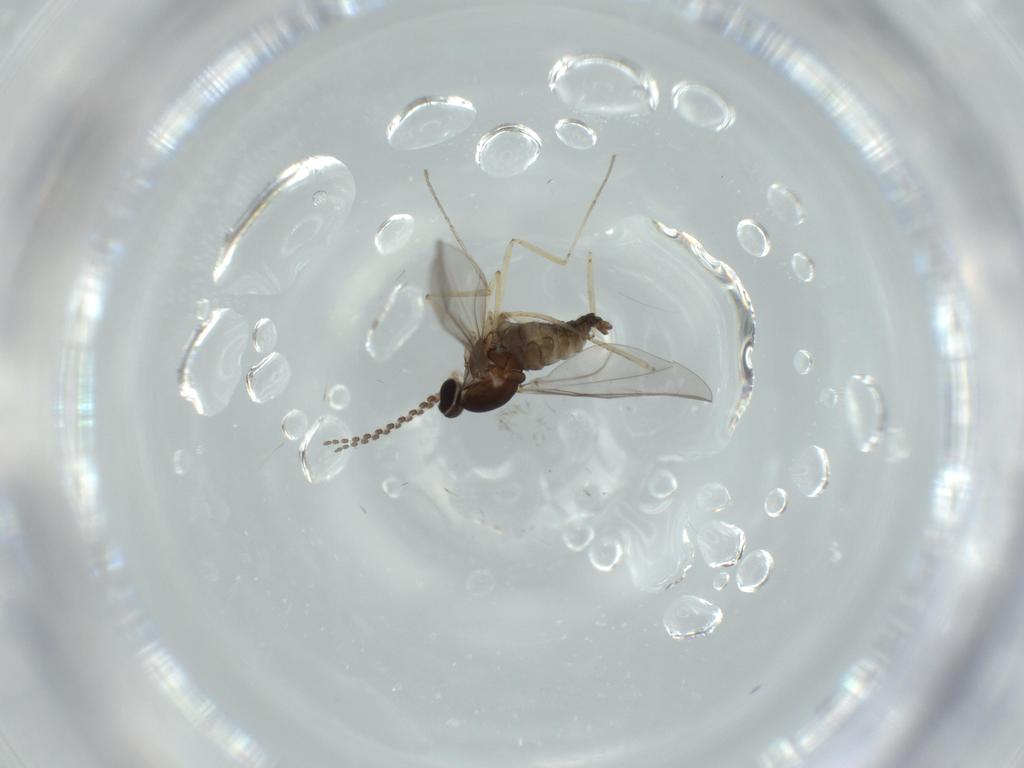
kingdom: Animalia
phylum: Arthropoda
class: Insecta
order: Diptera
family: Cecidomyiidae
